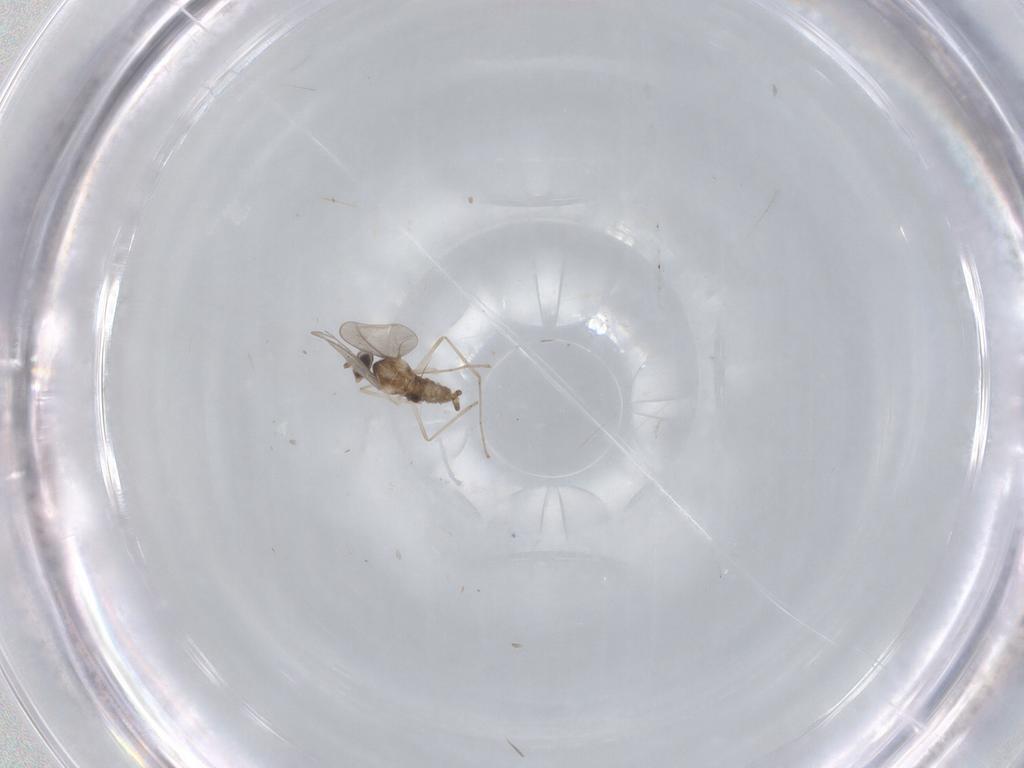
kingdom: Animalia
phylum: Arthropoda
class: Insecta
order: Diptera
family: Cecidomyiidae
